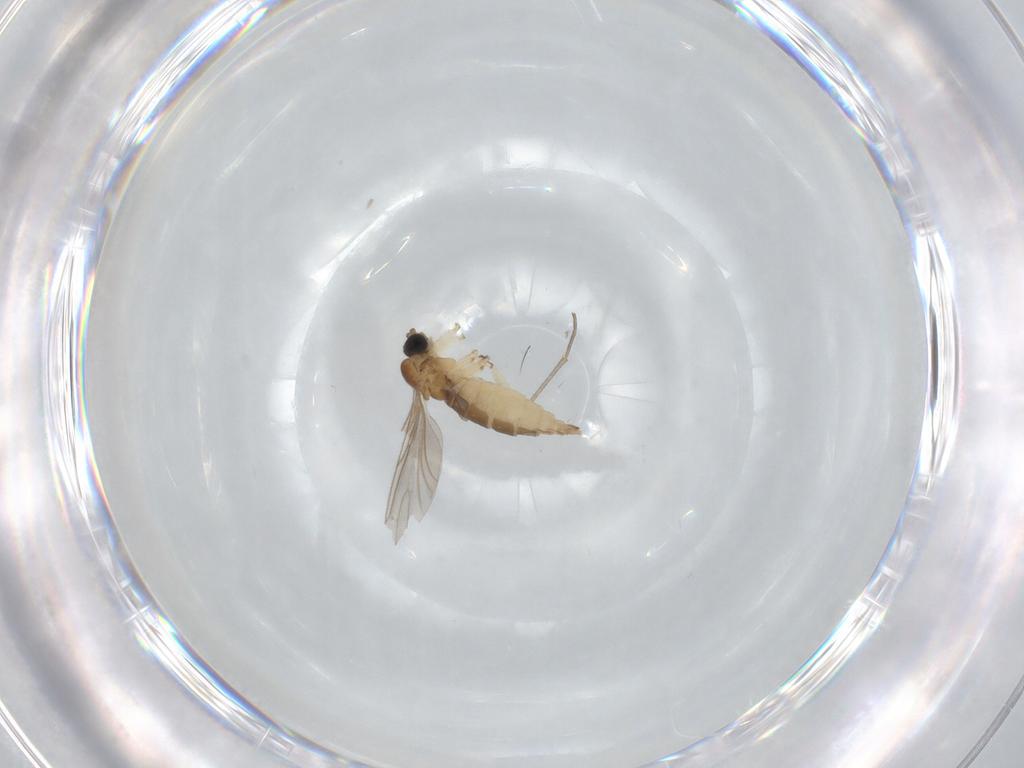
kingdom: Animalia
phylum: Arthropoda
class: Insecta
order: Diptera
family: Sciaridae
